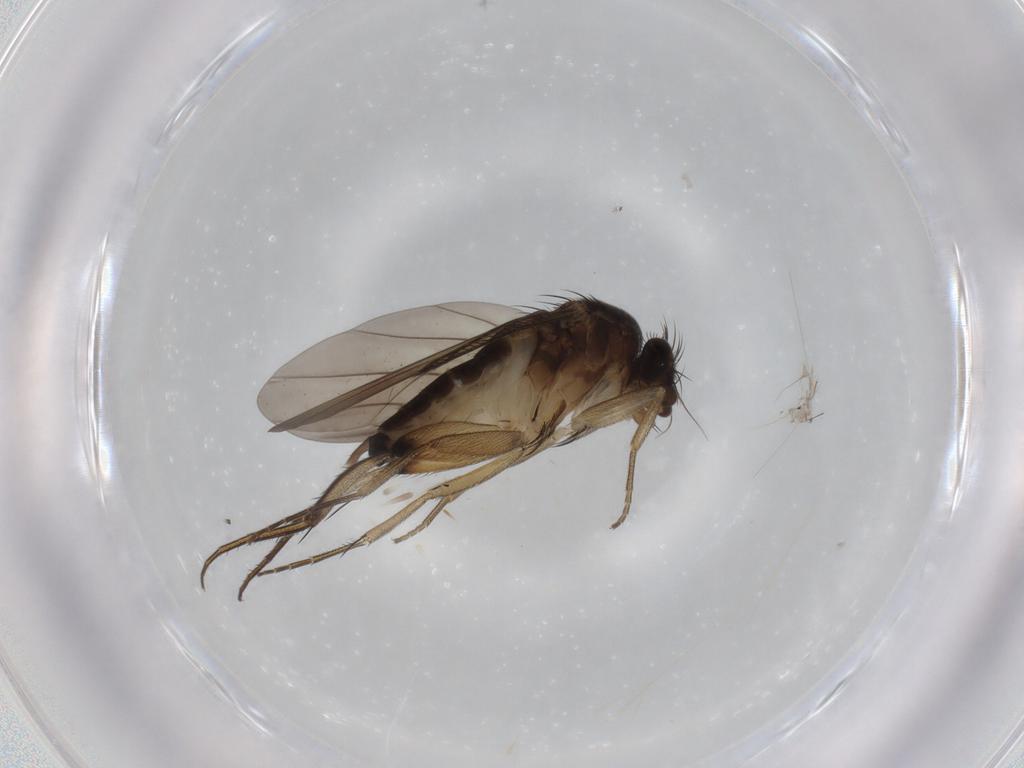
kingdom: Animalia
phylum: Arthropoda
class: Insecta
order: Diptera
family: Phoridae
